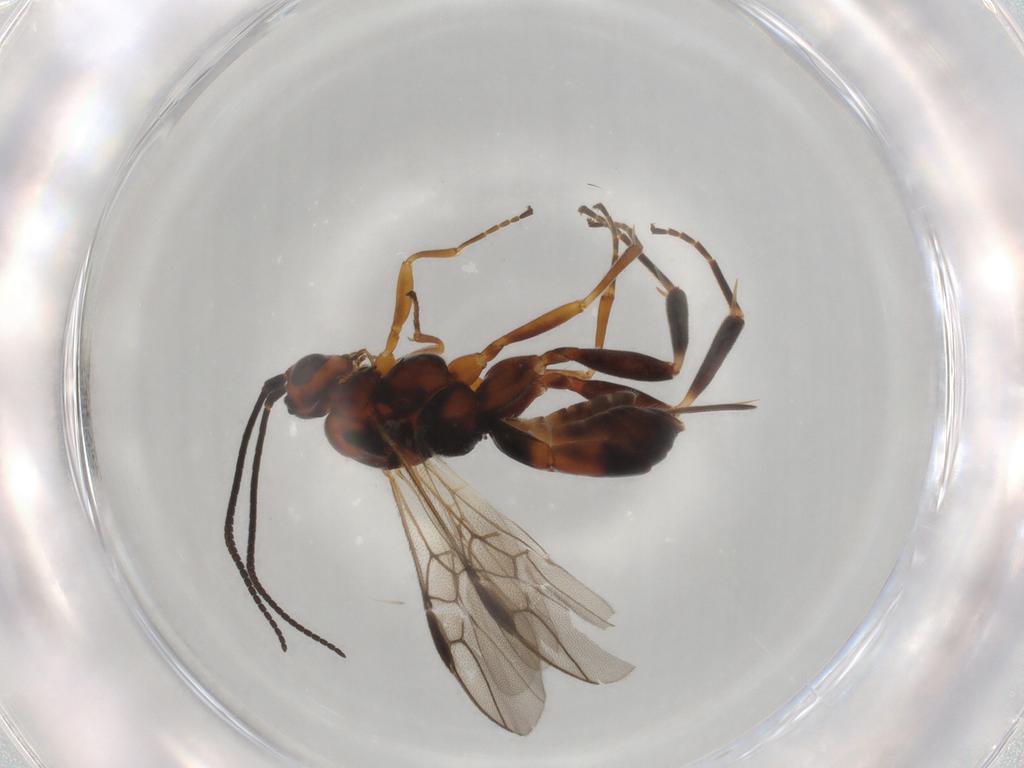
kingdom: Animalia
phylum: Arthropoda
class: Insecta
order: Hymenoptera
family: Braconidae
